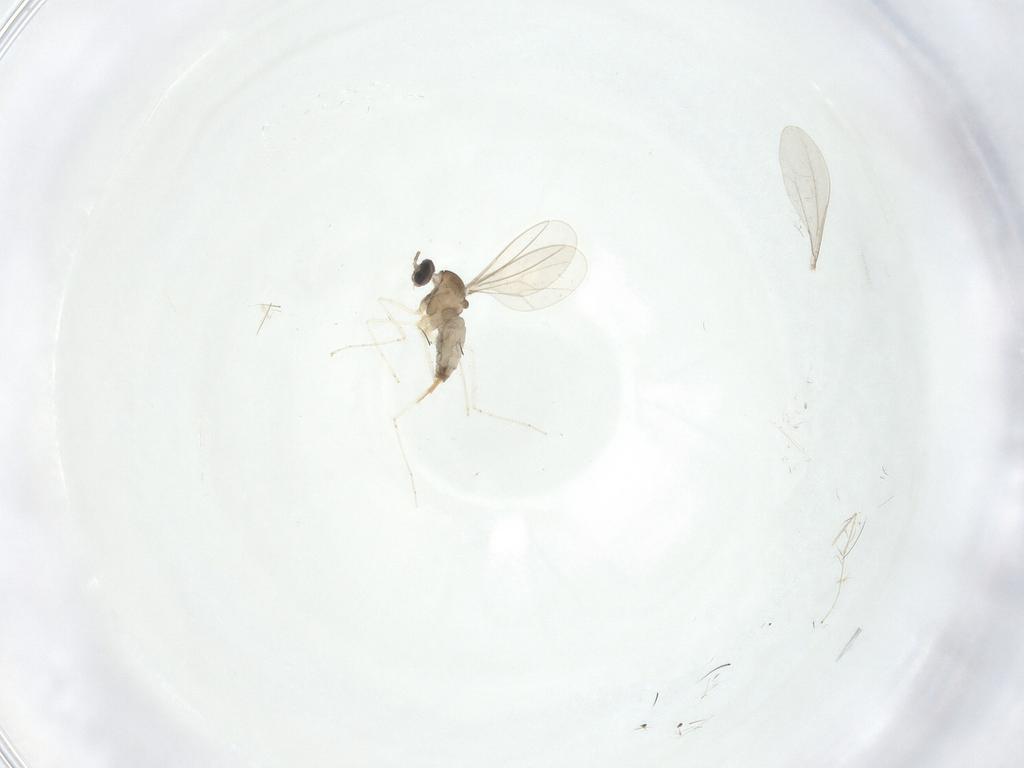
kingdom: Animalia
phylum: Arthropoda
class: Insecta
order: Diptera
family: Cecidomyiidae
